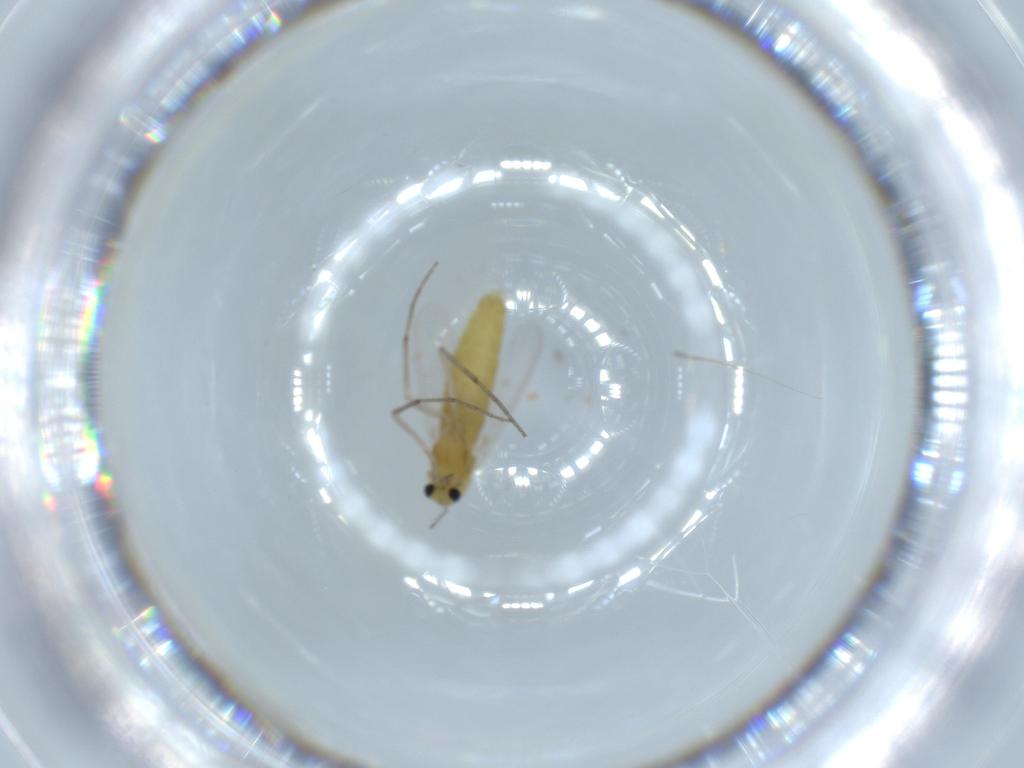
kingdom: Animalia
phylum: Arthropoda
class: Insecta
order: Diptera
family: Chironomidae
